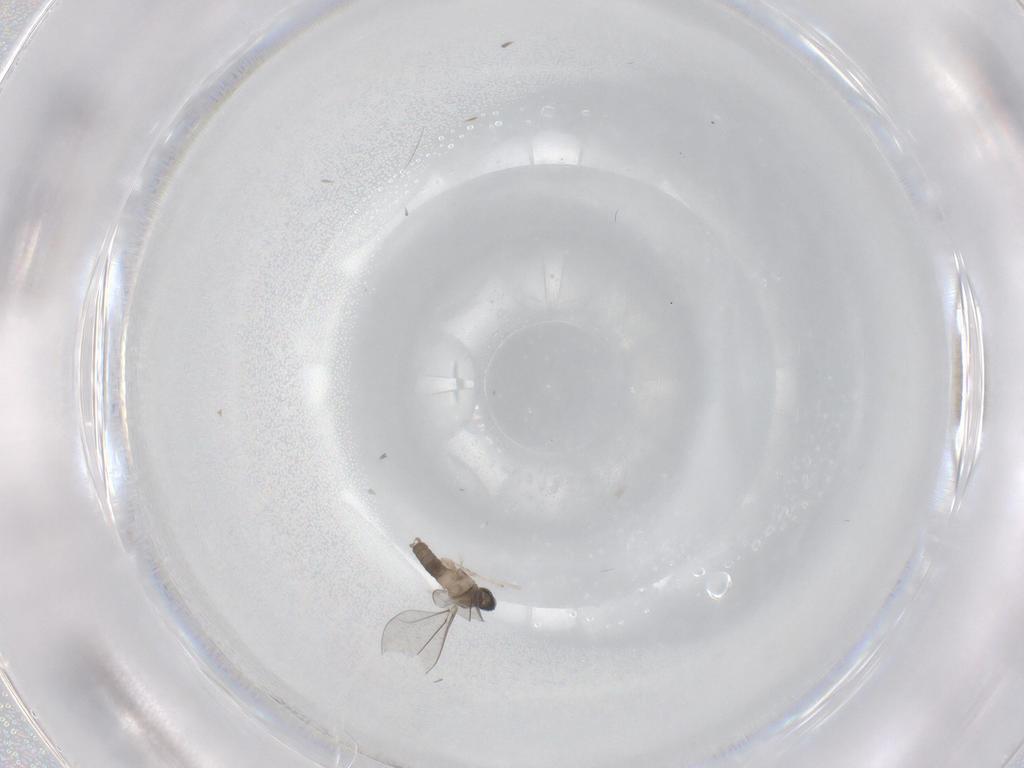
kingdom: Animalia
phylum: Arthropoda
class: Insecta
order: Diptera
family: Cecidomyiidae
